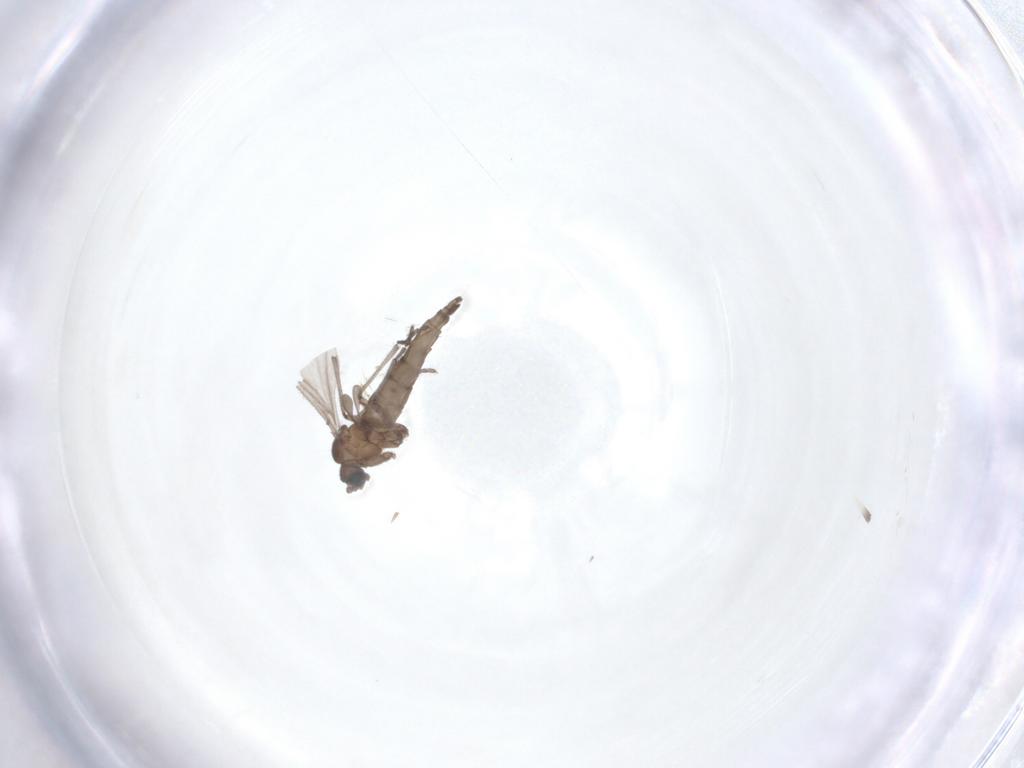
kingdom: Animalia
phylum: Arthropoda
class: Insecta
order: Diptera
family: Sciaridae
